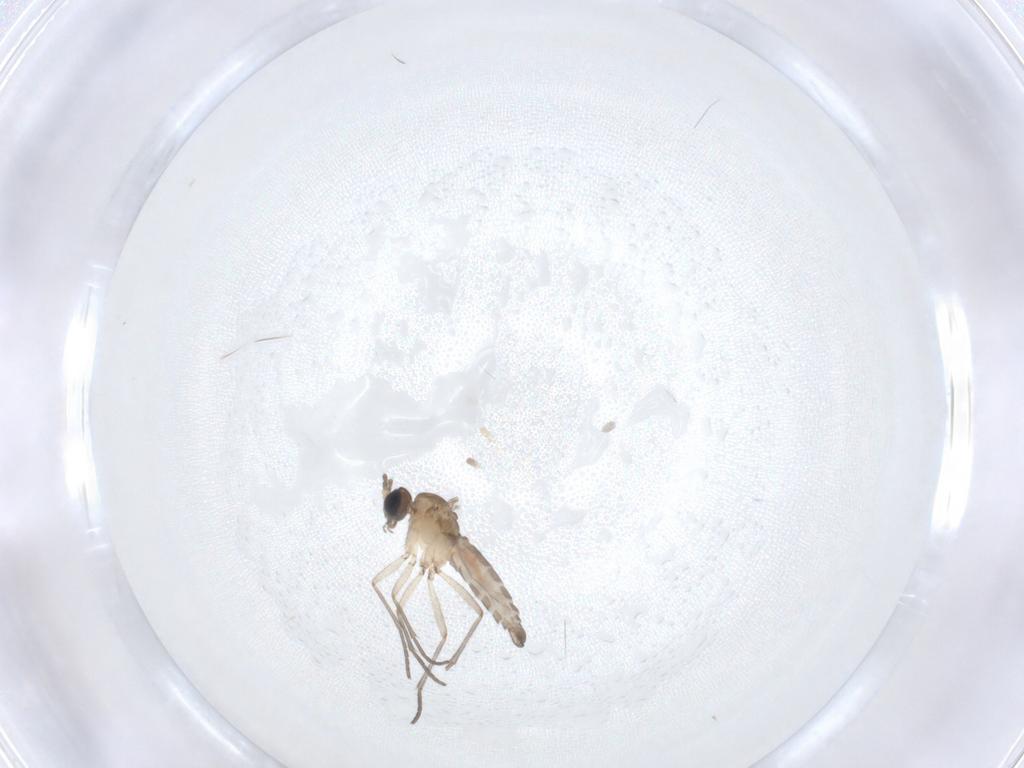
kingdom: Animalia
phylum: Arthropoda
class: Insecta
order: Diptera
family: Sciaridae
